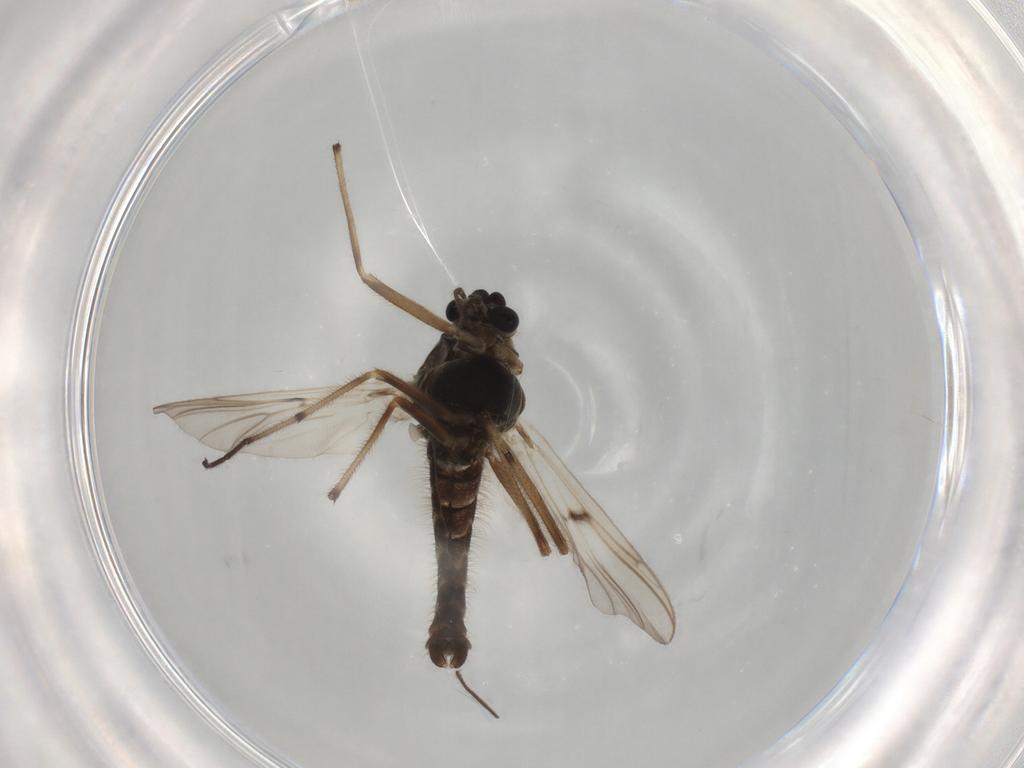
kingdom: Animalia
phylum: Arthropoda
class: Insecta
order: Diptera
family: Chironomidae
